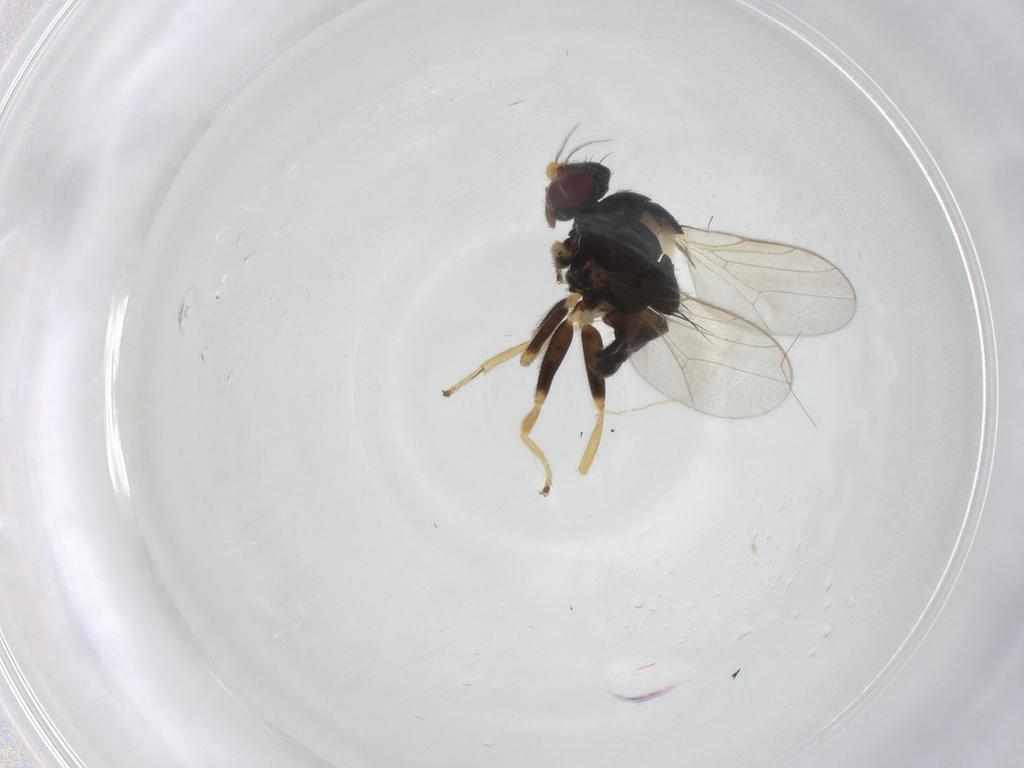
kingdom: Animalia
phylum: Arthropoda
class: Insecta
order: Diptera
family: Chloropidae
